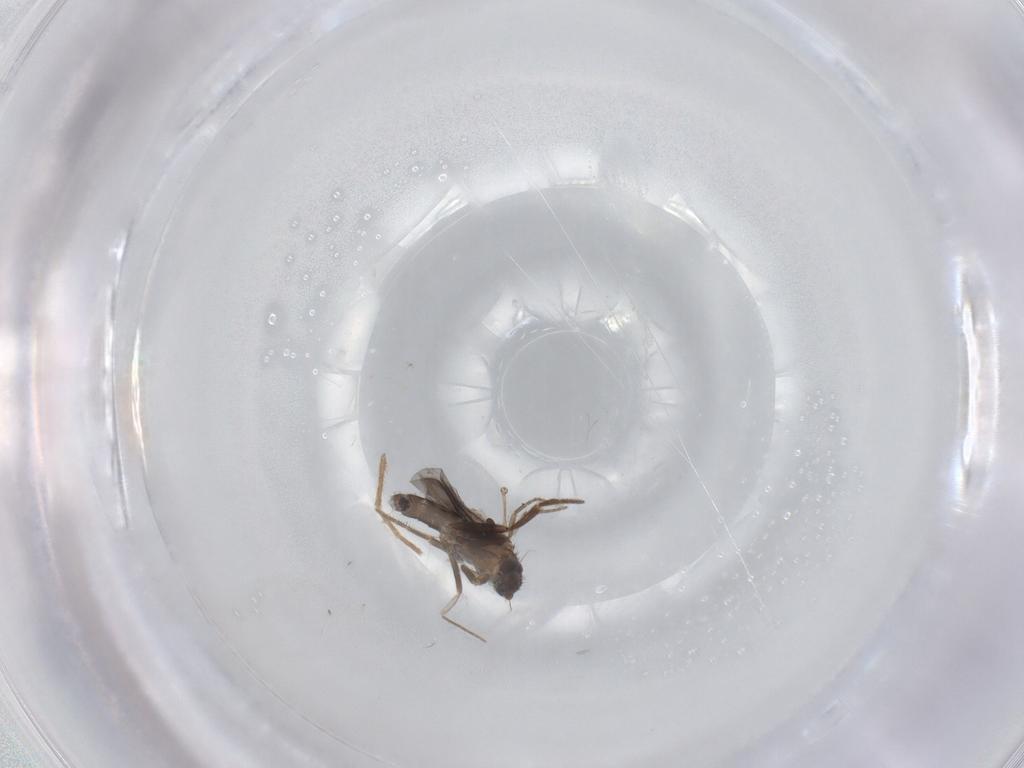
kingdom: Animalia
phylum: Arthropoda
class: Insecta
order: Diptera
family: Phoridae
